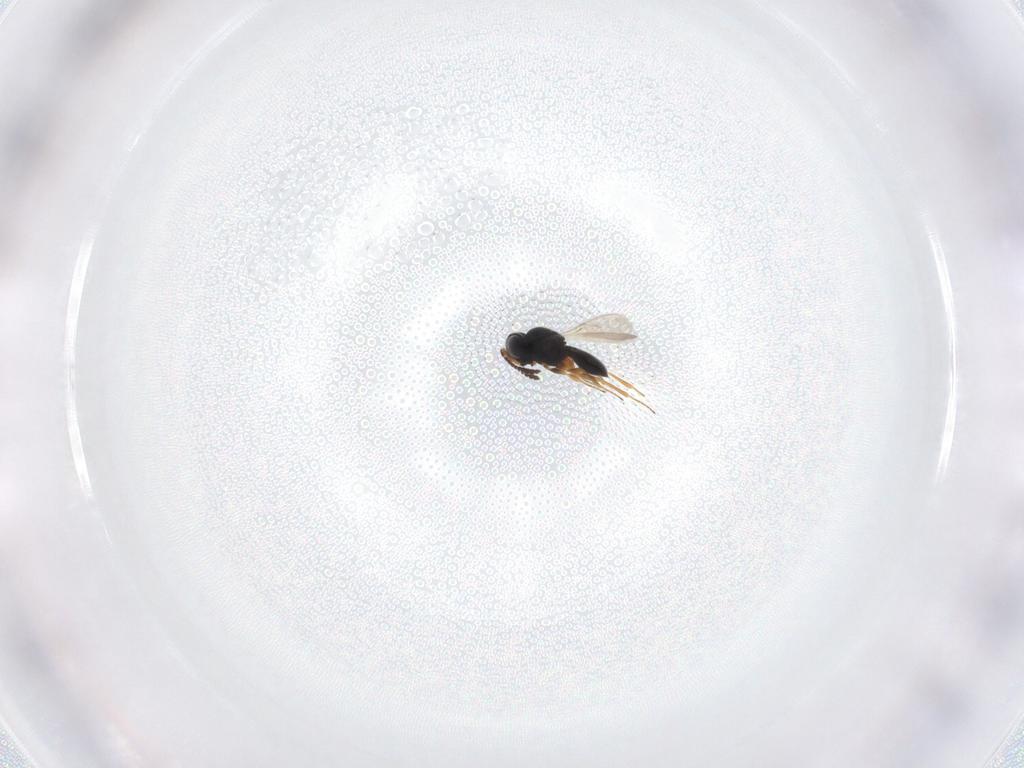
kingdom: Animalia
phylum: Arthropoda
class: Insecta
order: Hymenoptera
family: Scelionidae
